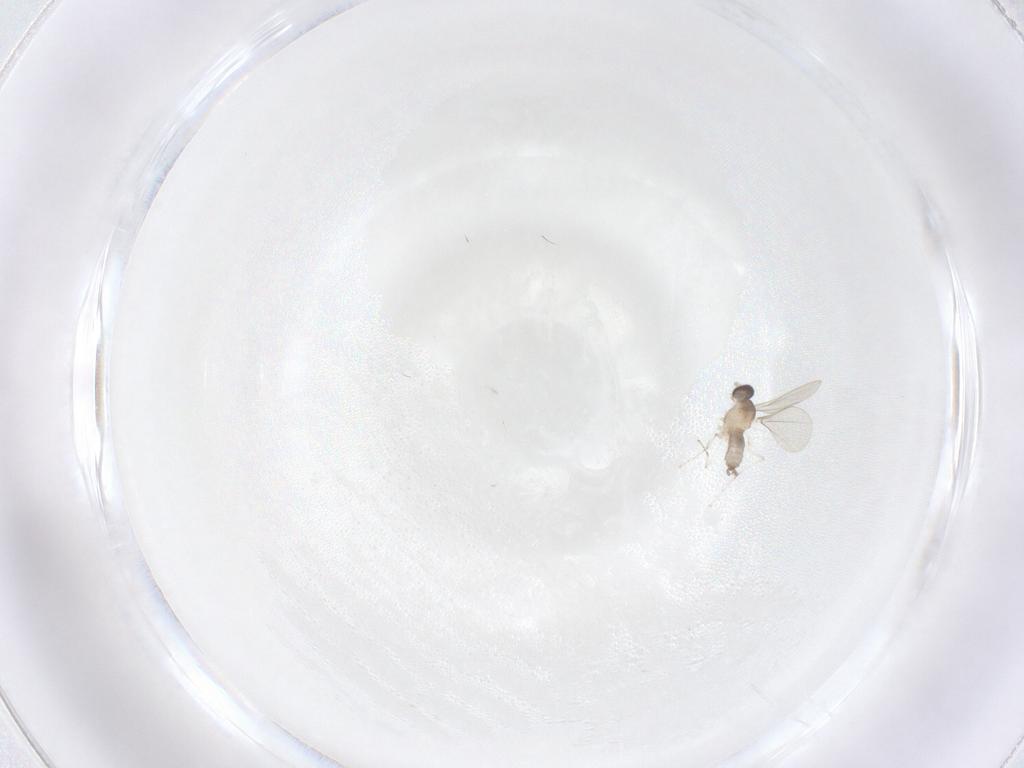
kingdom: Animalia
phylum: Arthropoda
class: Insecta
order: Diptera
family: Cecidomyiidae
